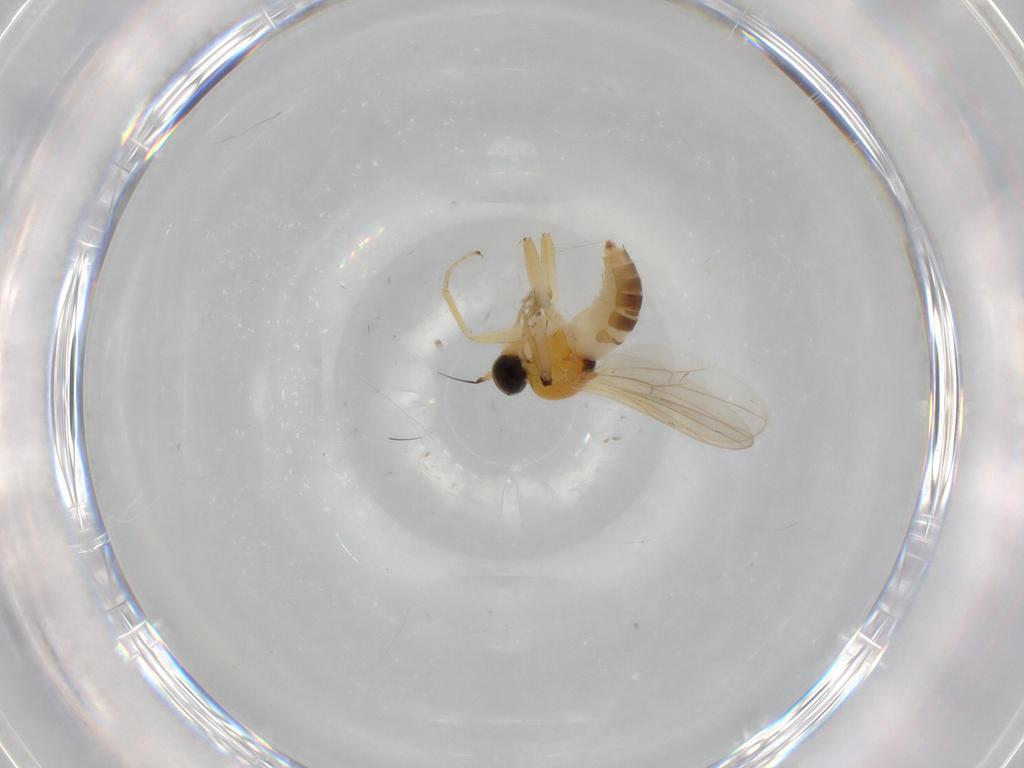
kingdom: Animalia
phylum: Arthropoda
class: Insecta
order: Diptera
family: Hybotidae
